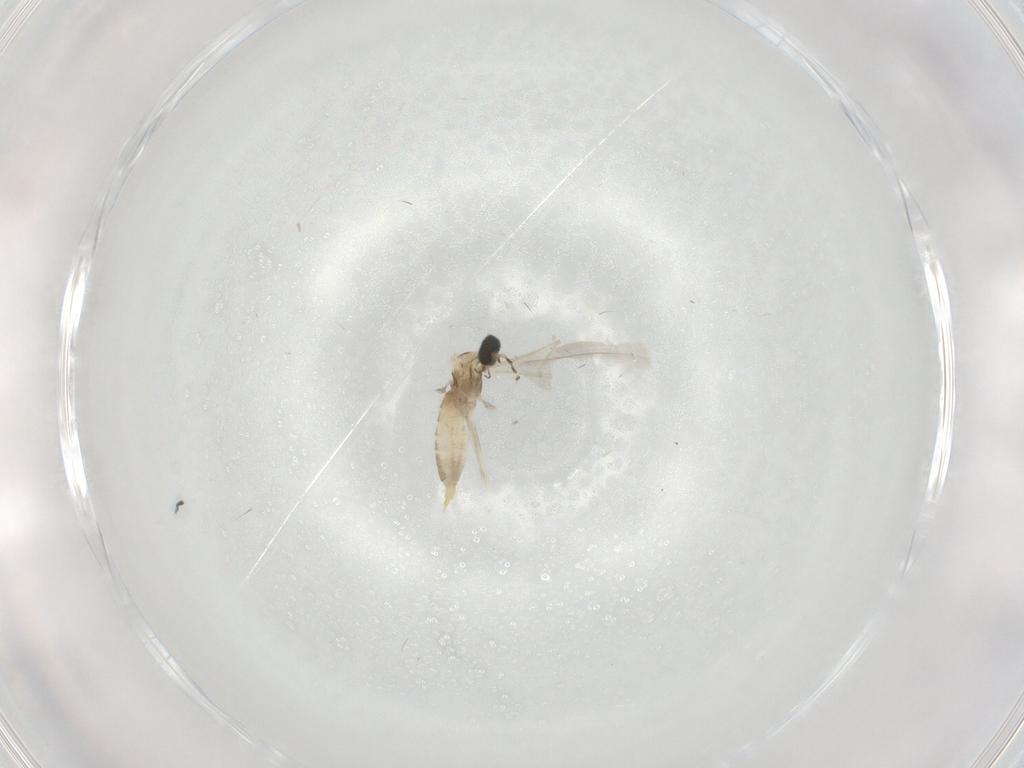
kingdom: Animalia
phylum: Arthropoda
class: Insecta
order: Diptera
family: Cecidomyiidae
